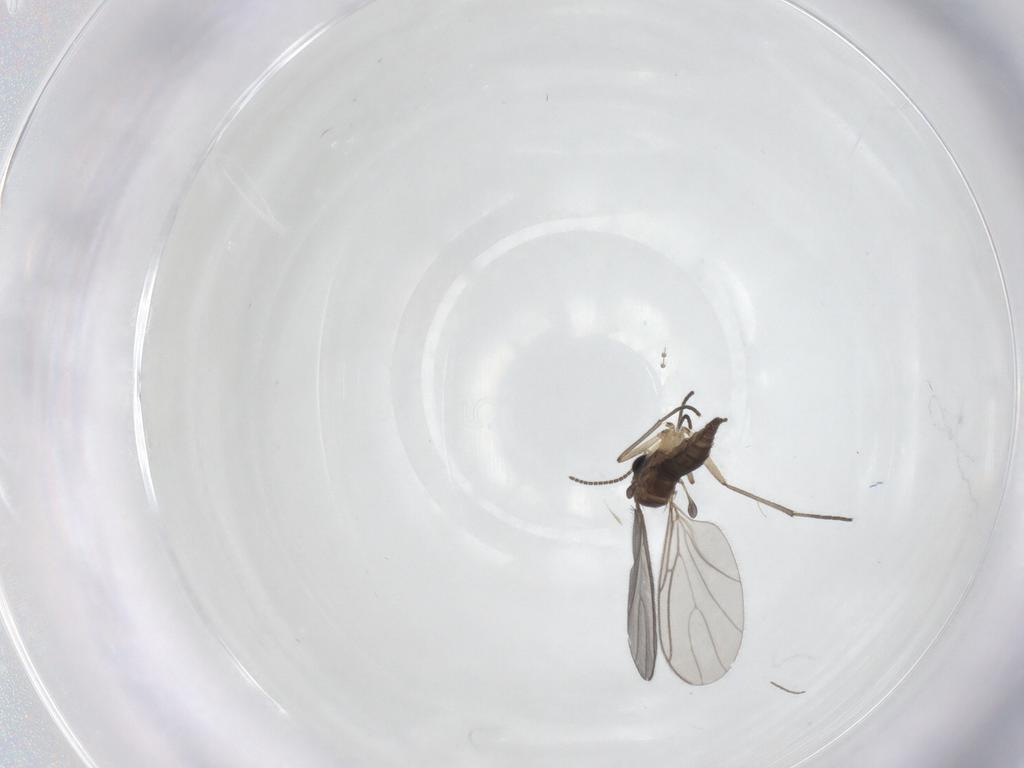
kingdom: Animalia
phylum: Arthropoda
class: Insecta
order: Diptera
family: Sciaridae
